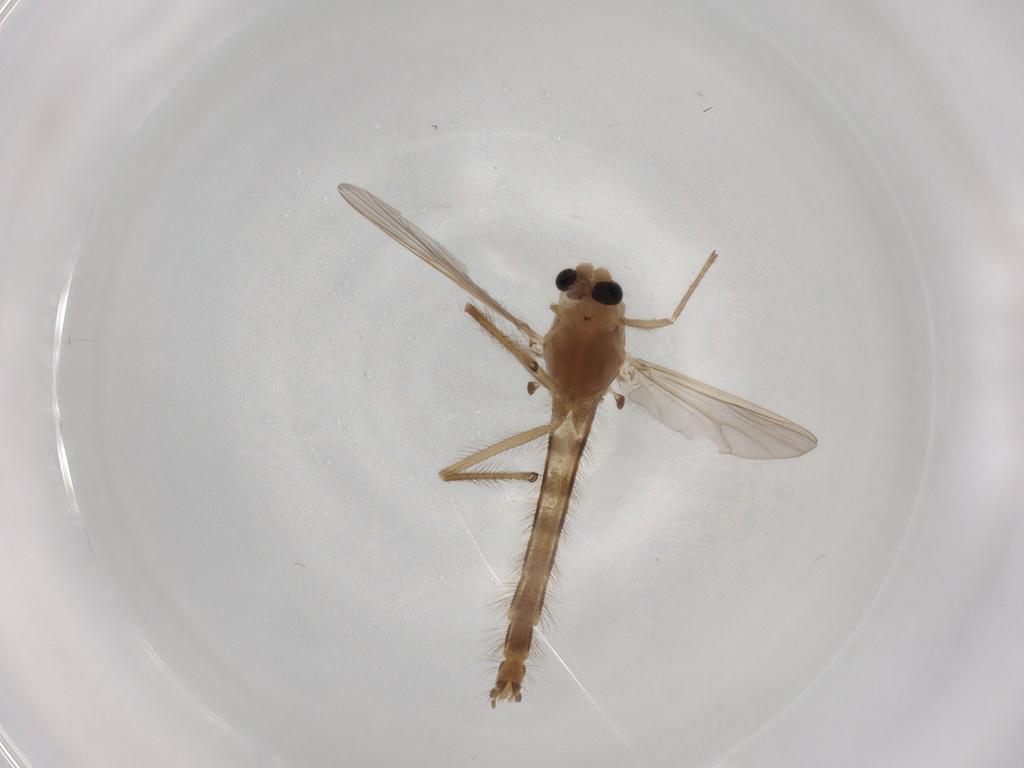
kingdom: Animalia
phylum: Arthropoda
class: Insecta
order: Diptera
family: Chironomidae
